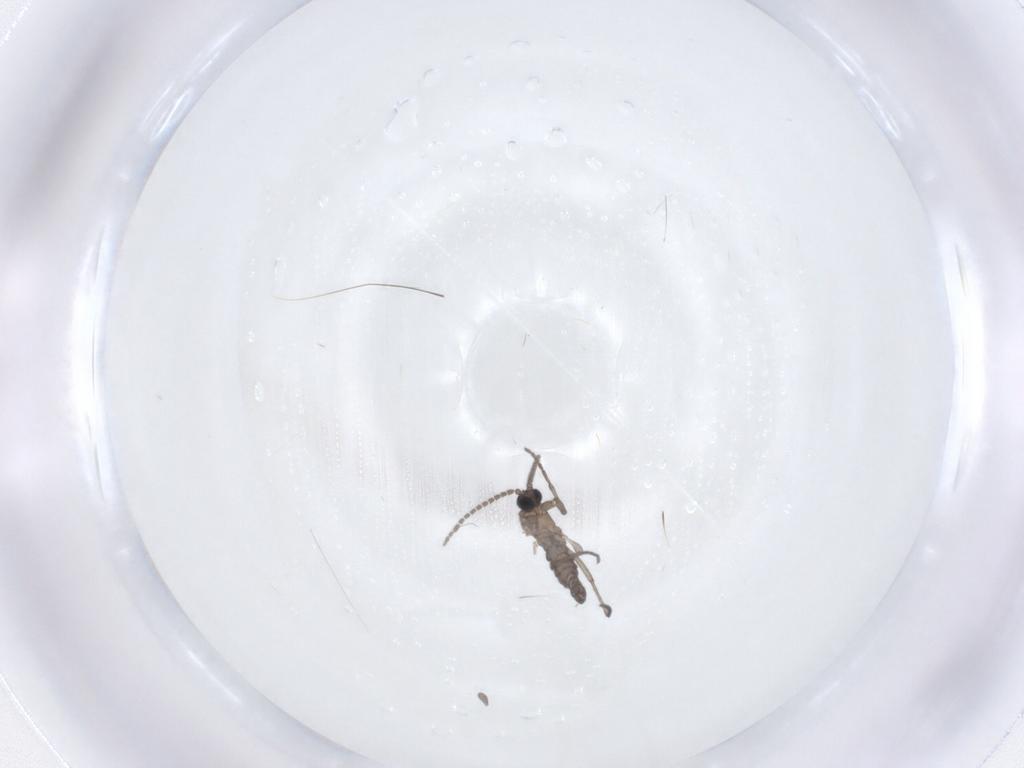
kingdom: Animalia
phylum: Arthropoda
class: Insecta
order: Diptera
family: Sciaridae
